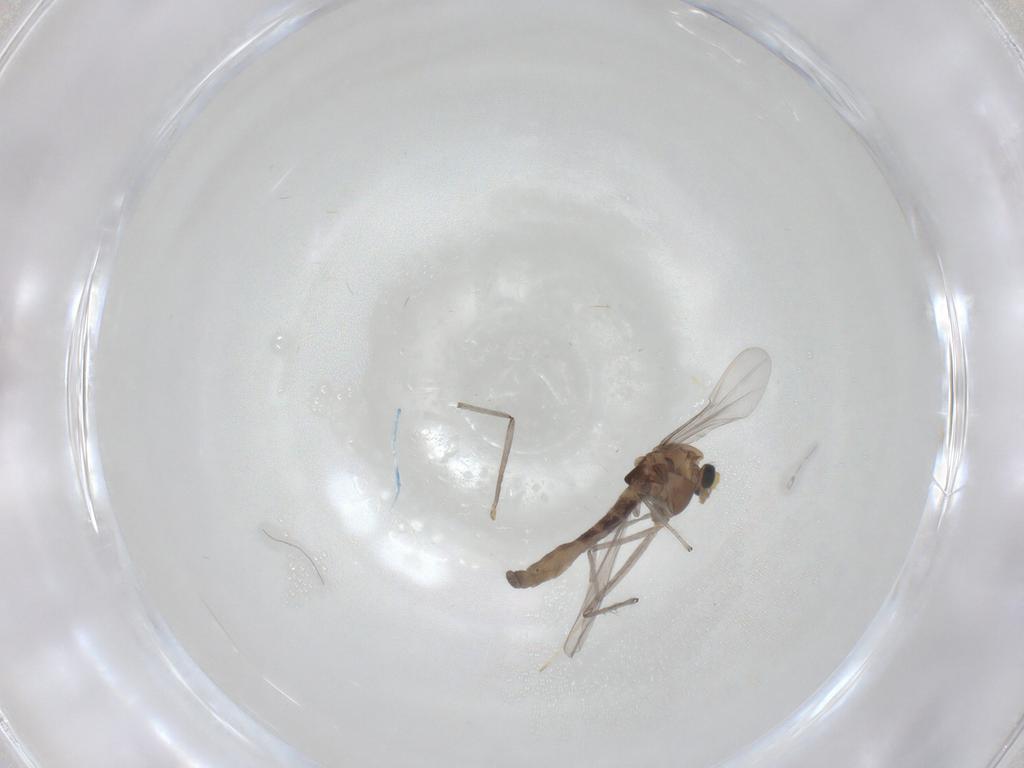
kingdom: Animalia
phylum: Arthropoda
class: Insecta
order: Diptera
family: Chironomidae
